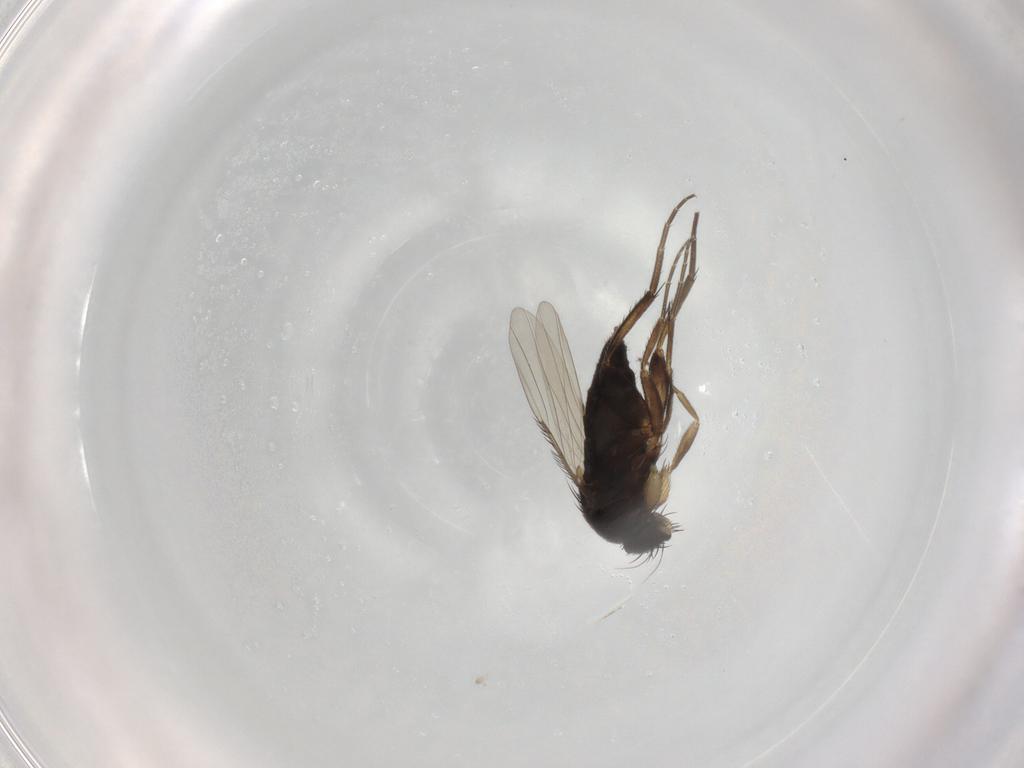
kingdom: Animalia
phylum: Arthropoda
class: Insecta
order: Diptera
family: Phoridae
